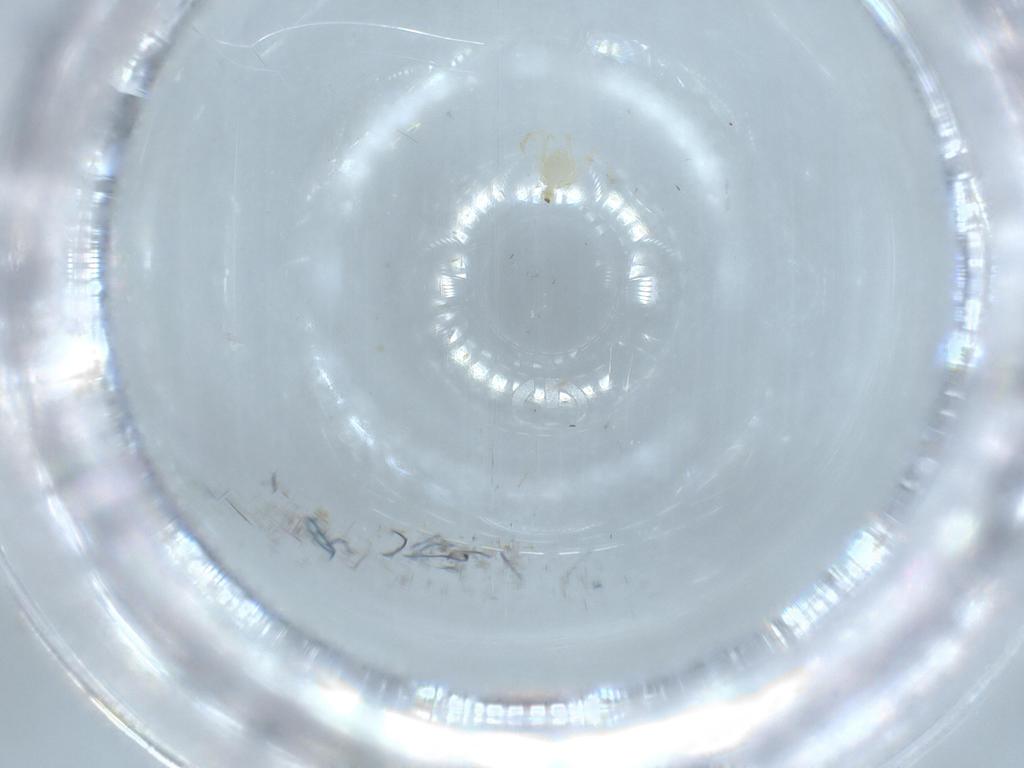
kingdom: Animalia
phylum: Arthropoda
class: Arachnida
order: Trombidiformes
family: Erythraeidae
